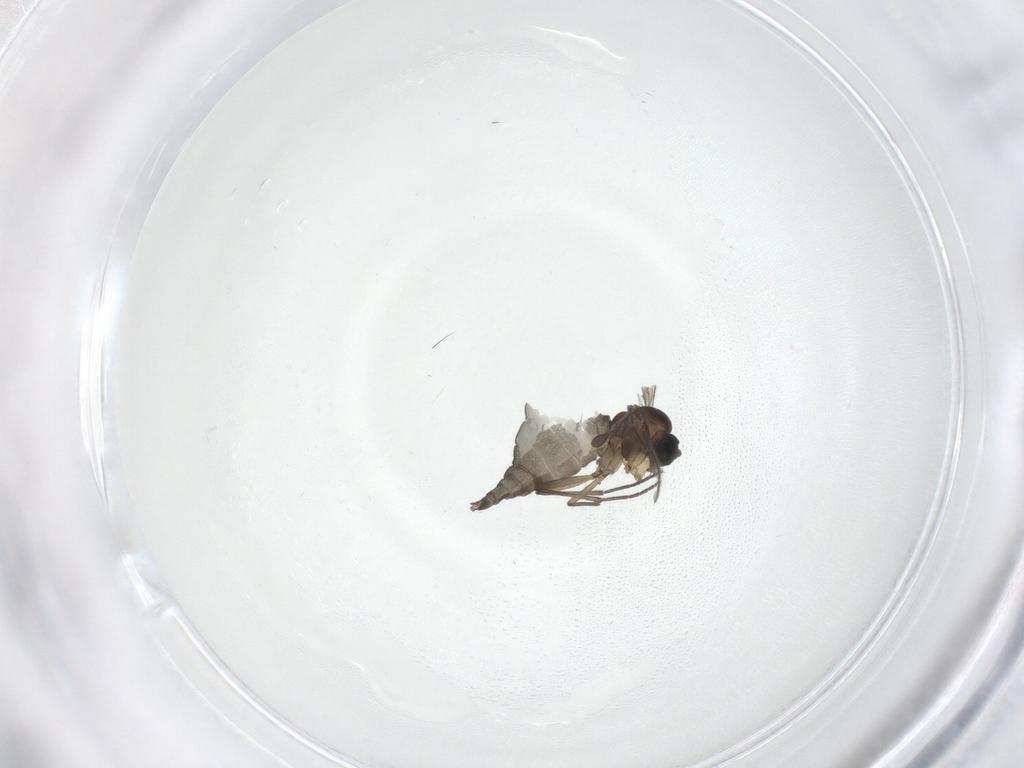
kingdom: Animalia
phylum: Arthropoda
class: Insecta
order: Diptera
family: Sciaridae
